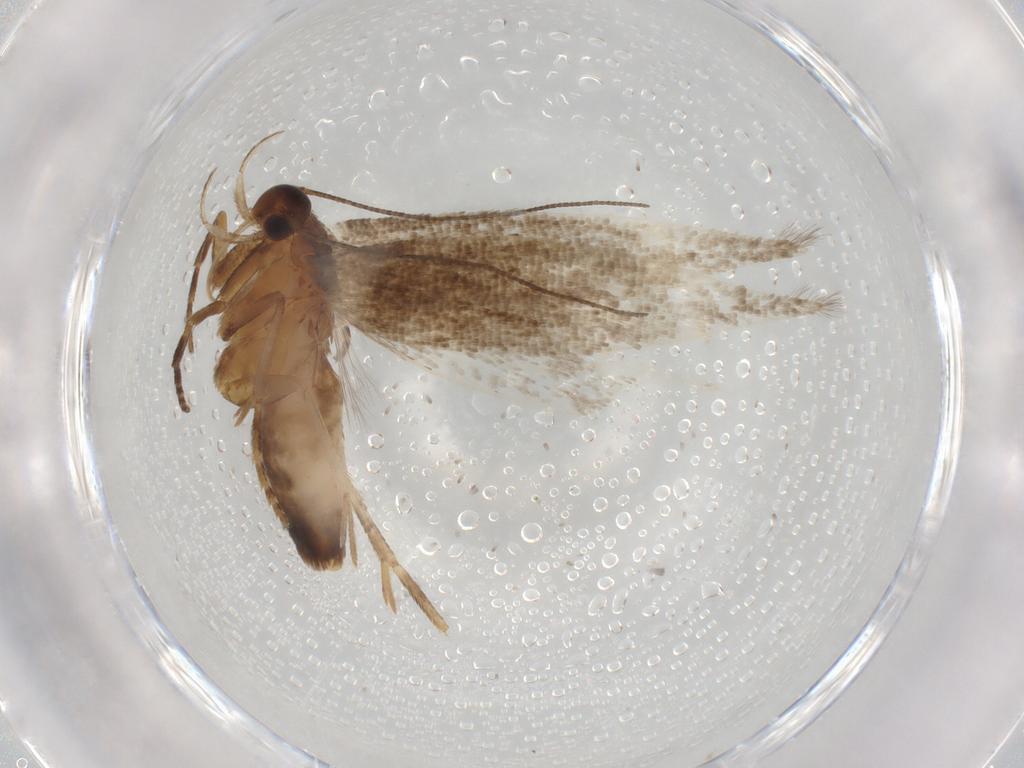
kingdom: Animalia
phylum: Arthropoda
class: Insecta
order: Lepidoptera
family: Gelechiidae
